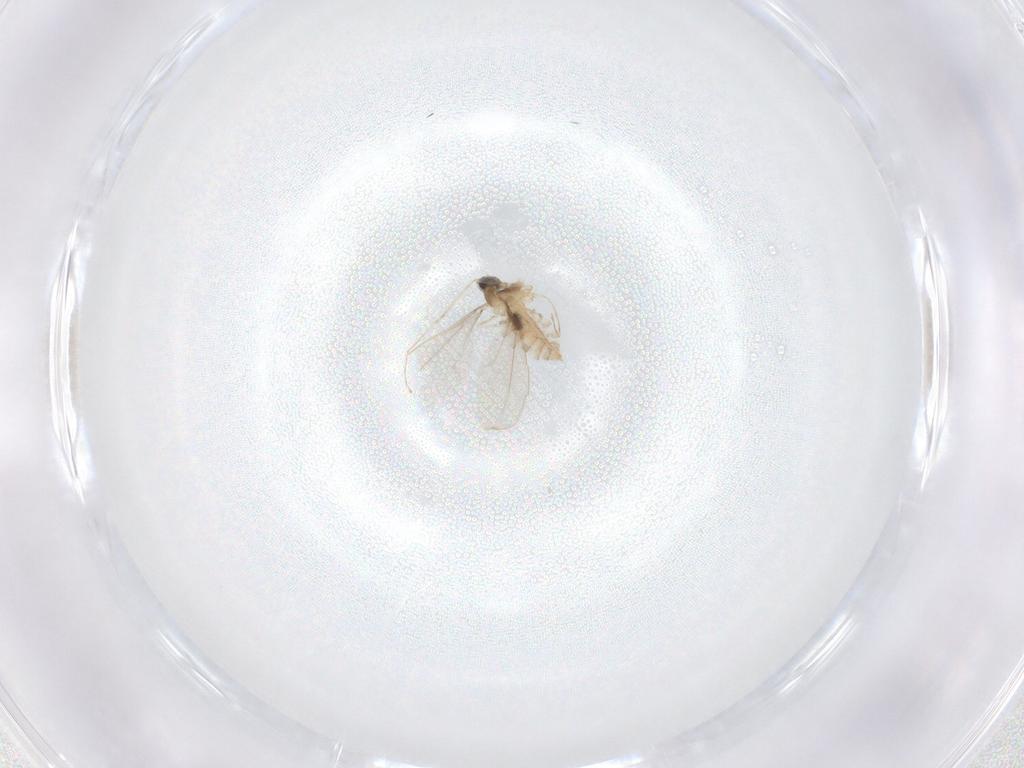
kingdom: Animalia
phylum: Arthropoda
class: Insecta
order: Diptera
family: Cecidomyiidae
